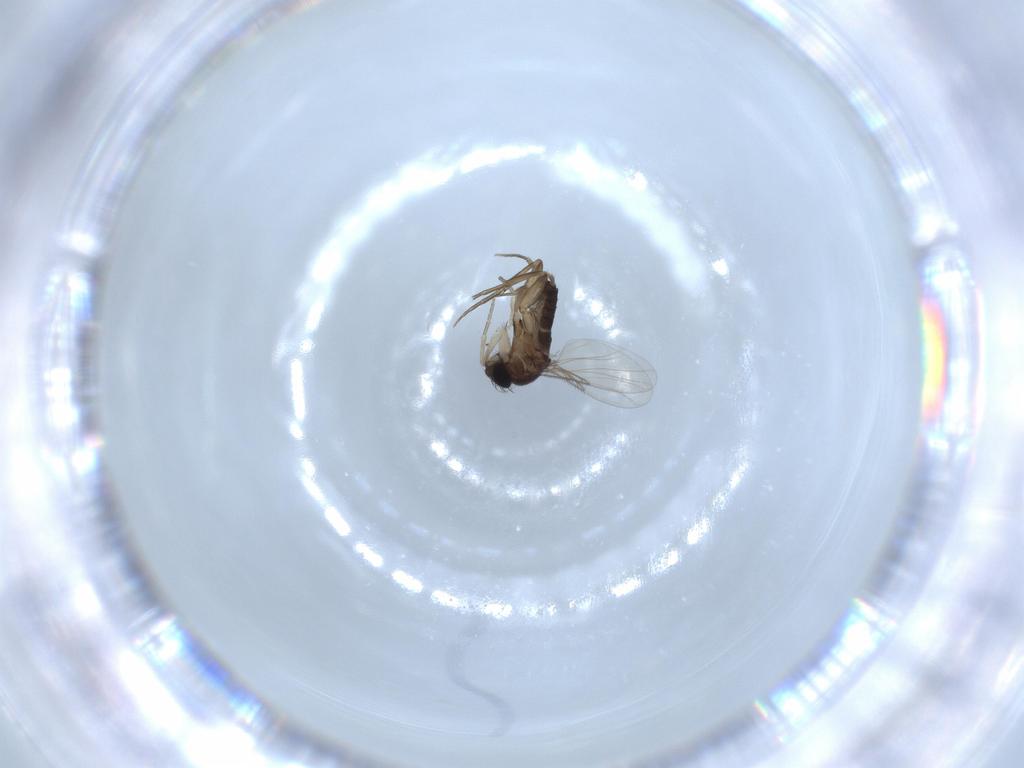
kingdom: Animalia
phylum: Arthropoda
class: Insecta
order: Diptera
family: Phoridae
